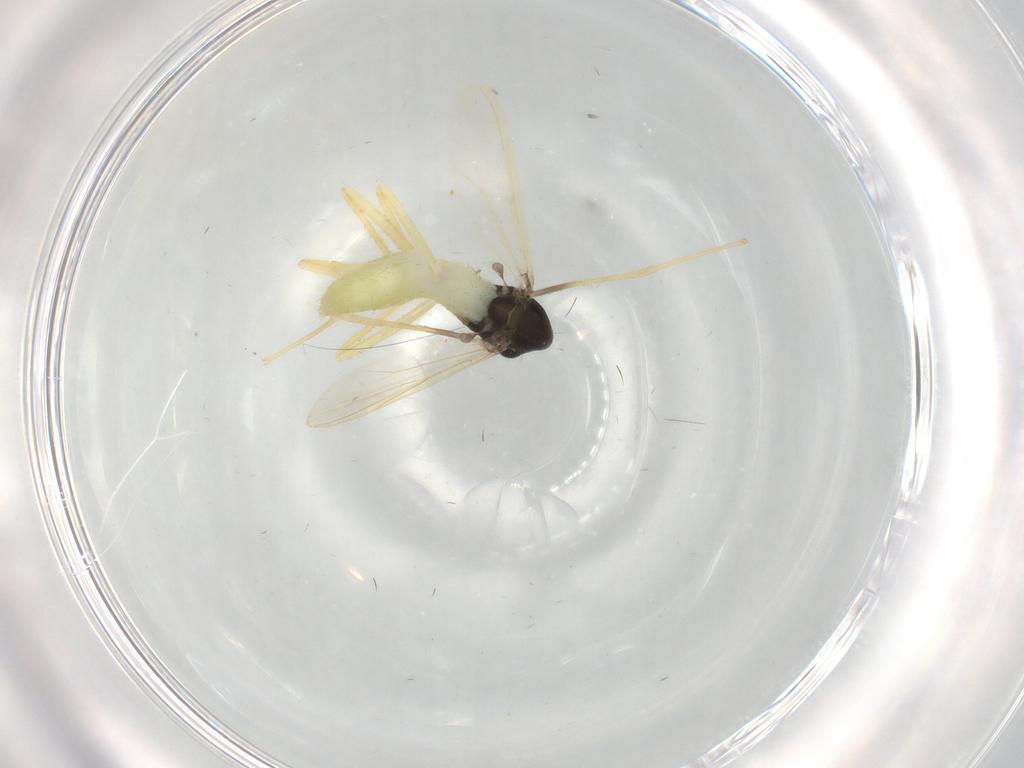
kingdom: Animalia
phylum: Arthropoda
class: Insecta
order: Diptera
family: Chironomidae
